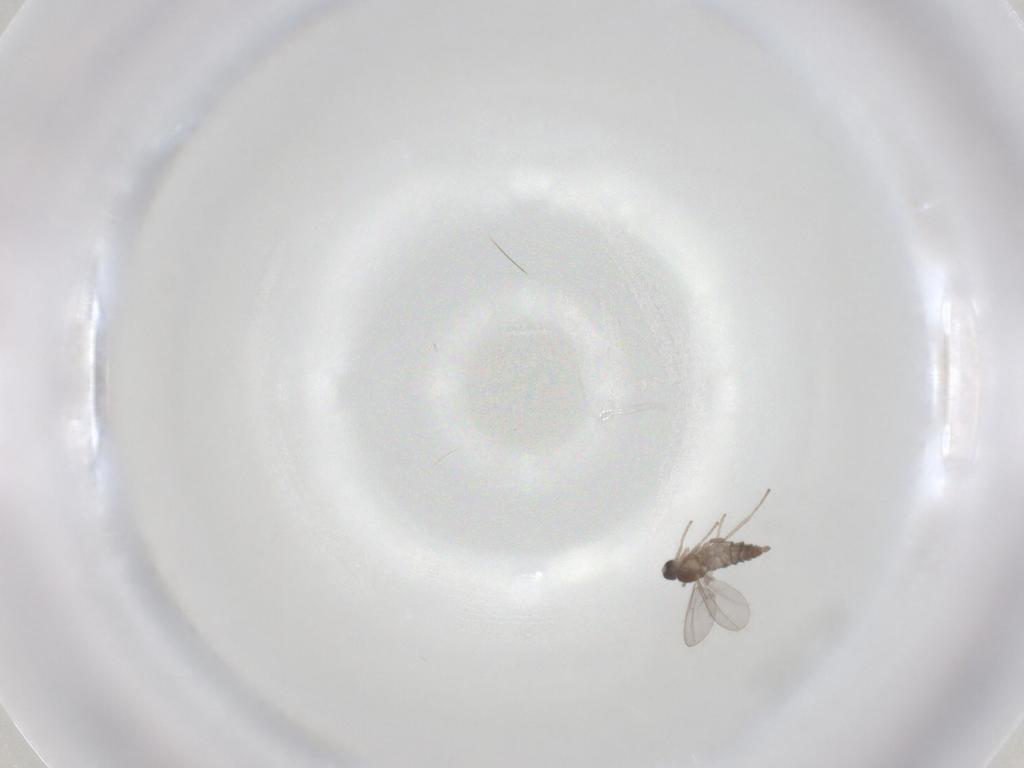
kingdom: Animalia
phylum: Arthropoda
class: Insecta
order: Diptera
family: Cecidomyiidae
